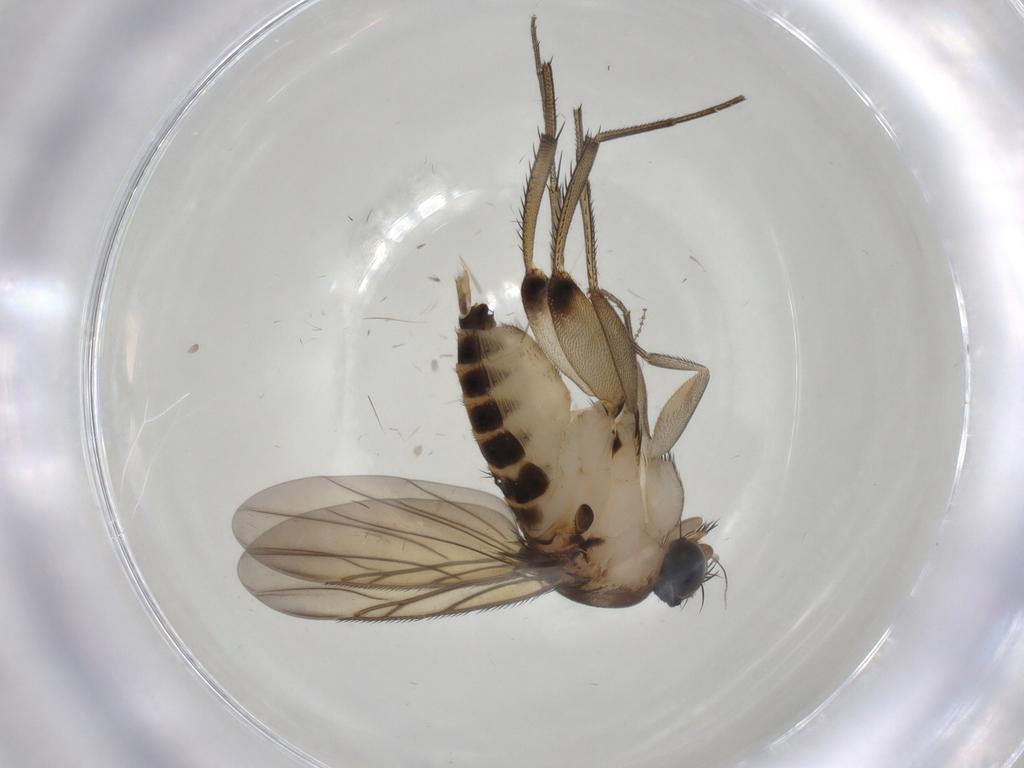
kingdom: Animalia
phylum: Arthropoda
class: Insecta
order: Diptera
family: Phoridae
